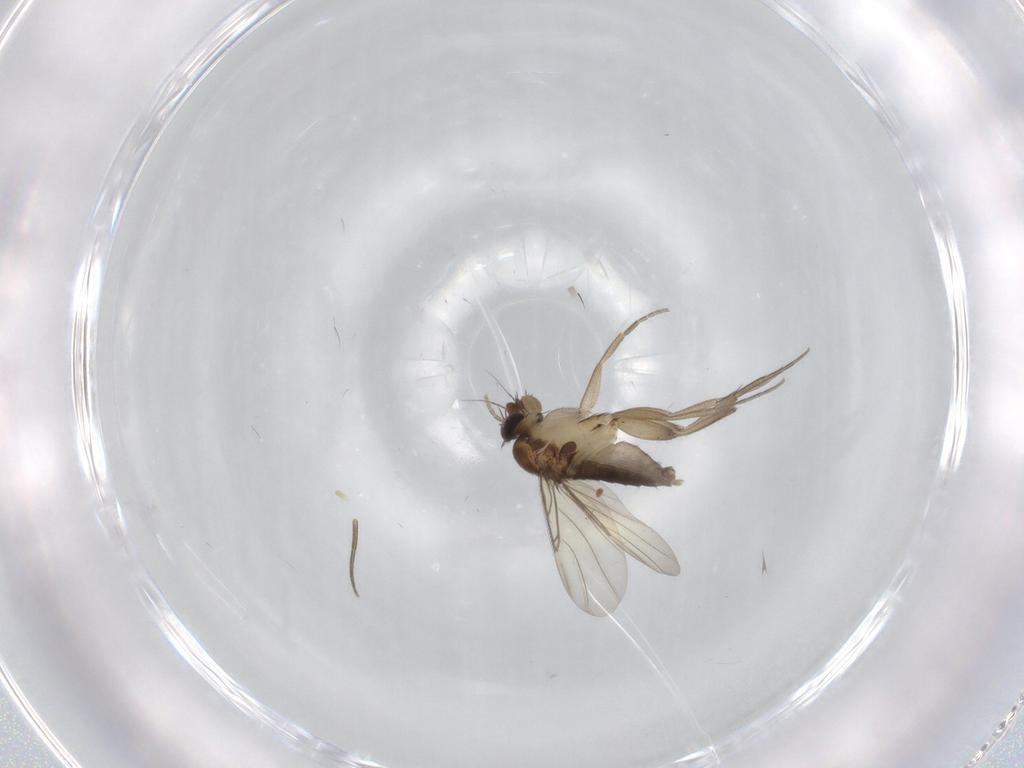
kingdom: Animalia
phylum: Arthropoda
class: Insecta
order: Diptera
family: Phoridae
